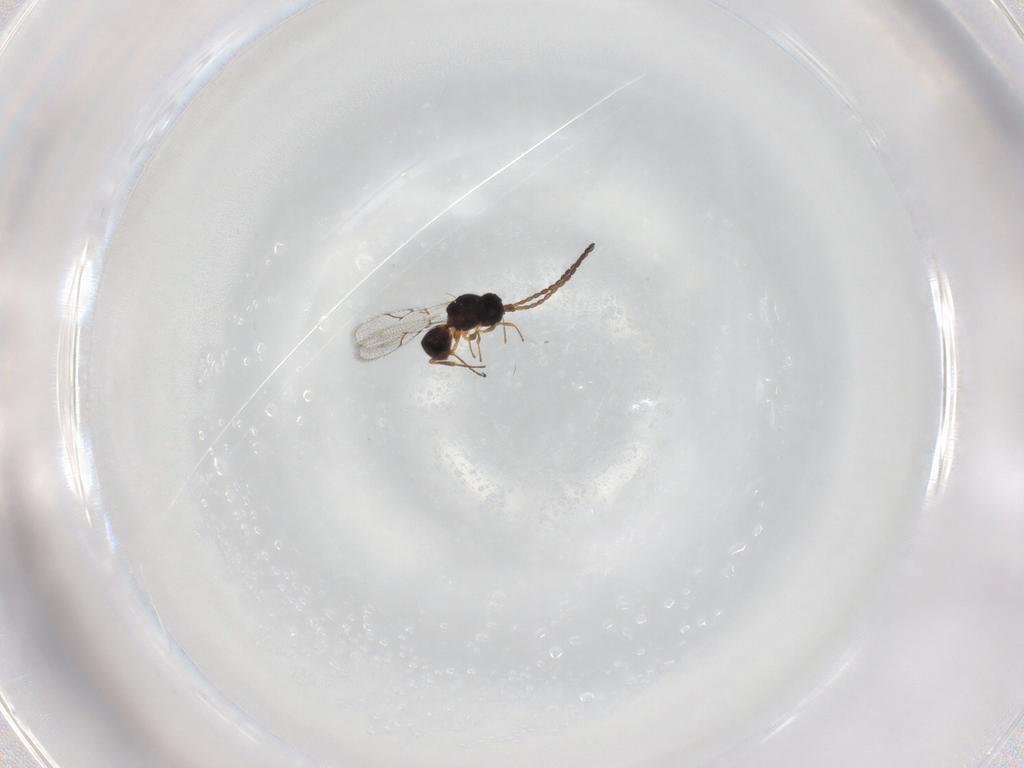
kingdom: Animalia
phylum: Arthropoda
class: Insecta
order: Hymenoptera
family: Figitidae
